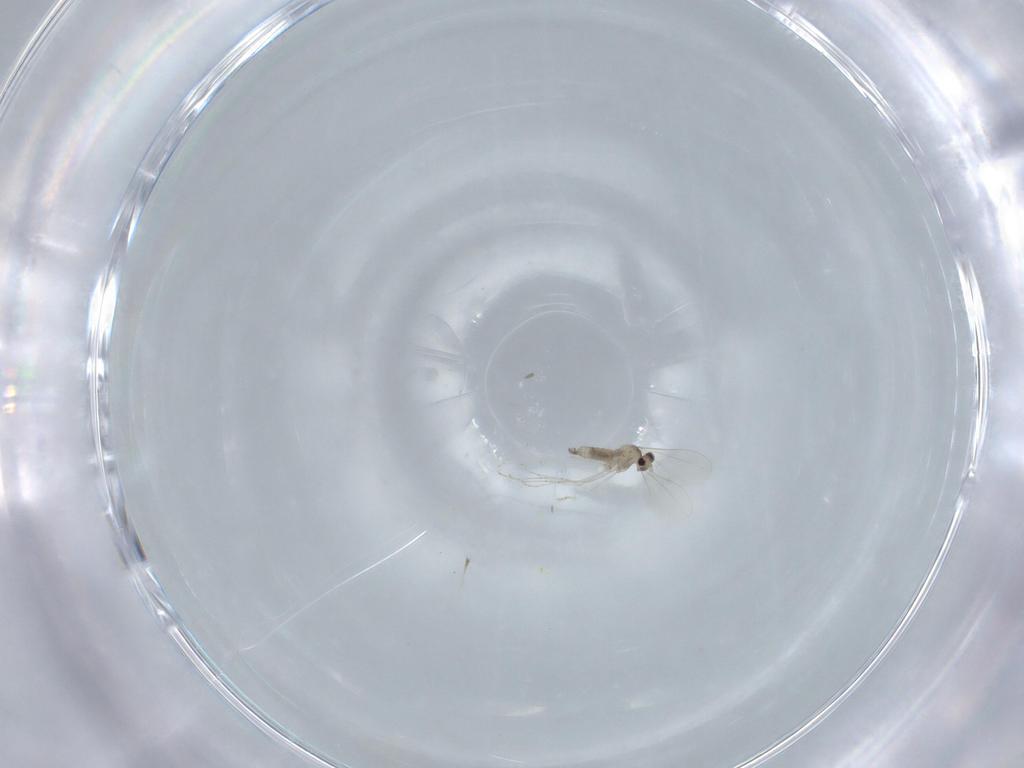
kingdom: Animalia
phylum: Arthropoda
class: Insecta
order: Diptera
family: Cecidomyiidae
